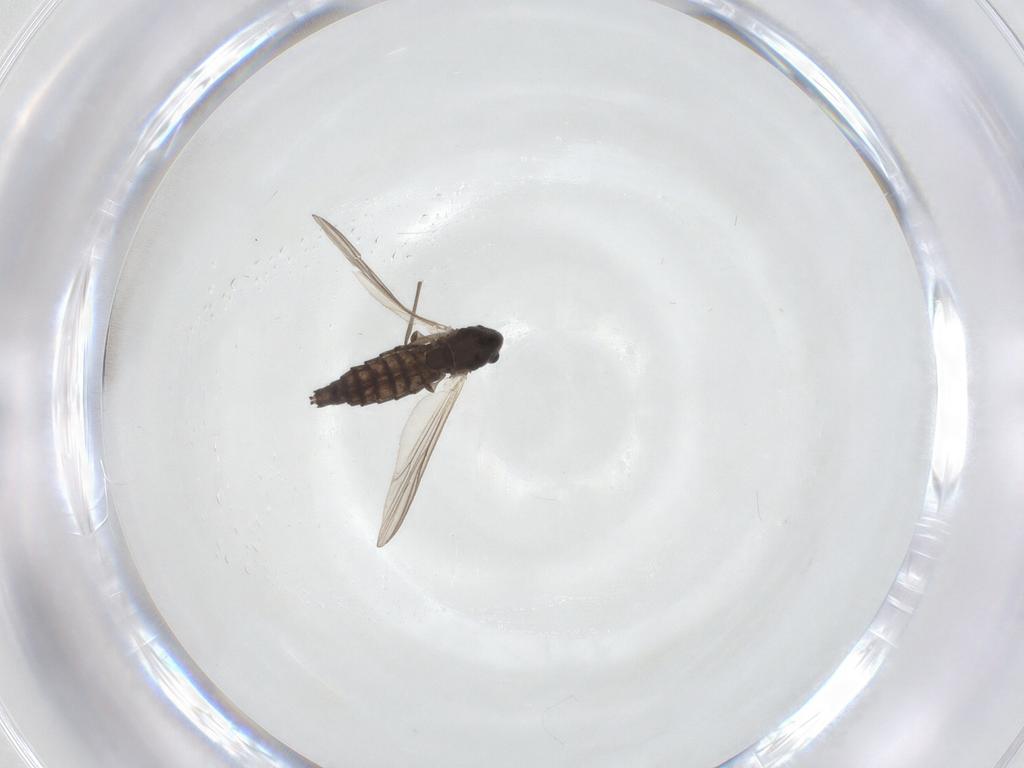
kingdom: Animalia
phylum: Arthropoda
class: Insecta
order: Diptera
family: Chironomidae
